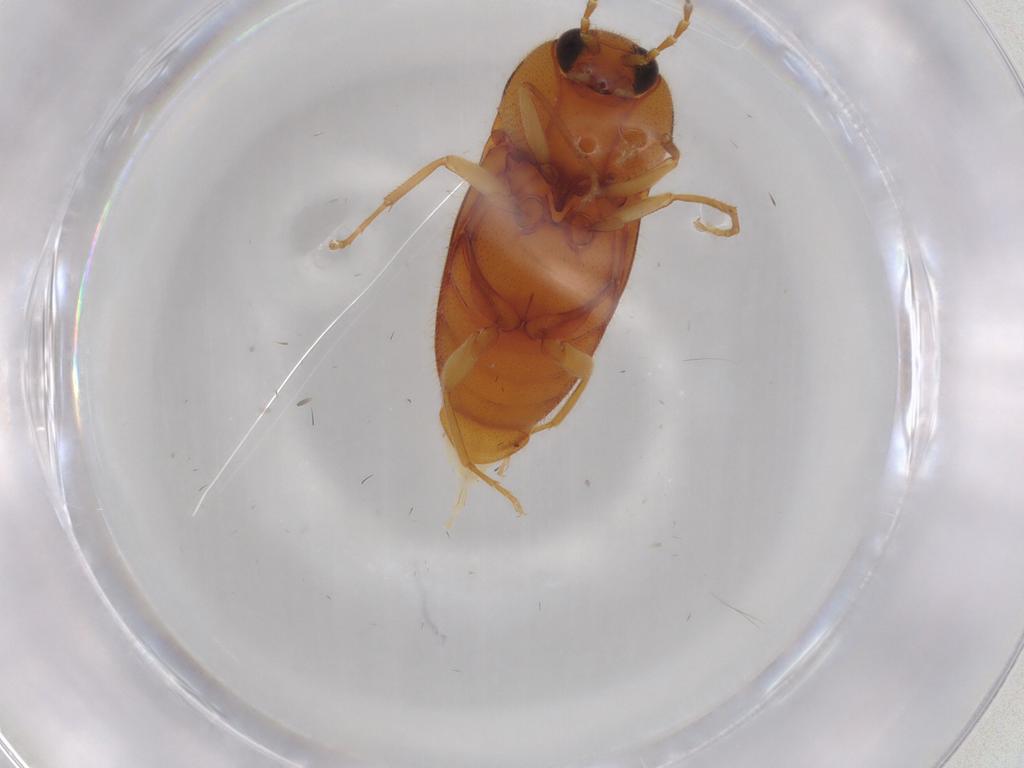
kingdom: Animalia
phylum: Arthropoda
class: Insecta
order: Coleoptera
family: Elateridae
